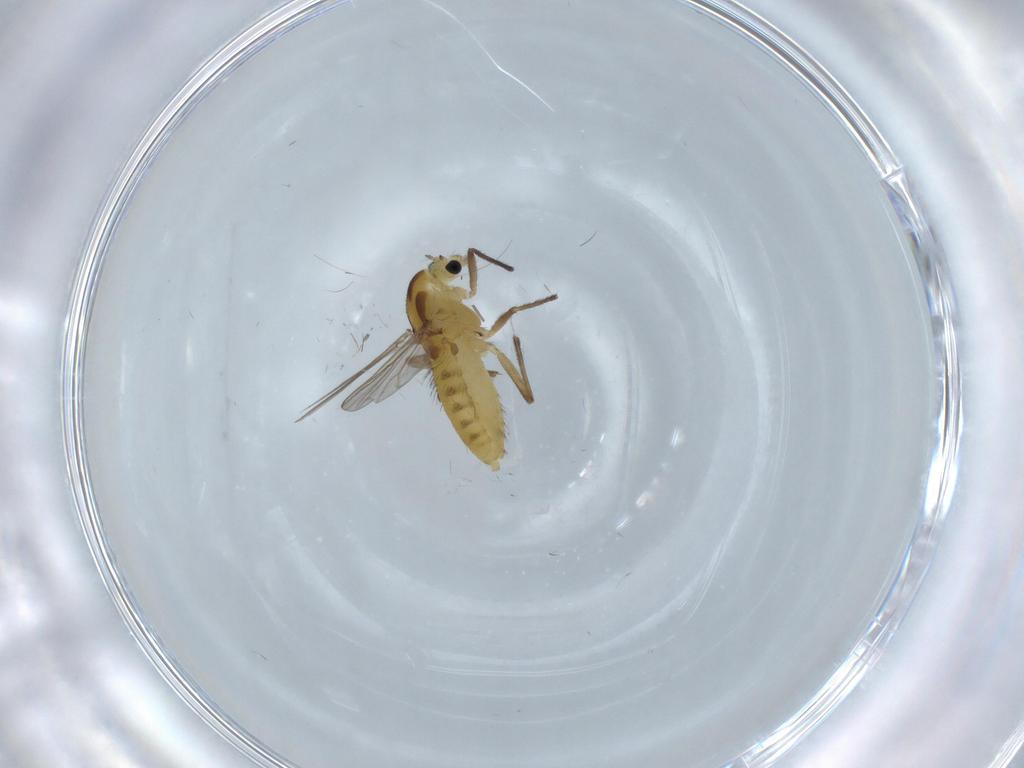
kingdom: Animalia
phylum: Arthropoda
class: Insecta
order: Diptera
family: Chironomidae
